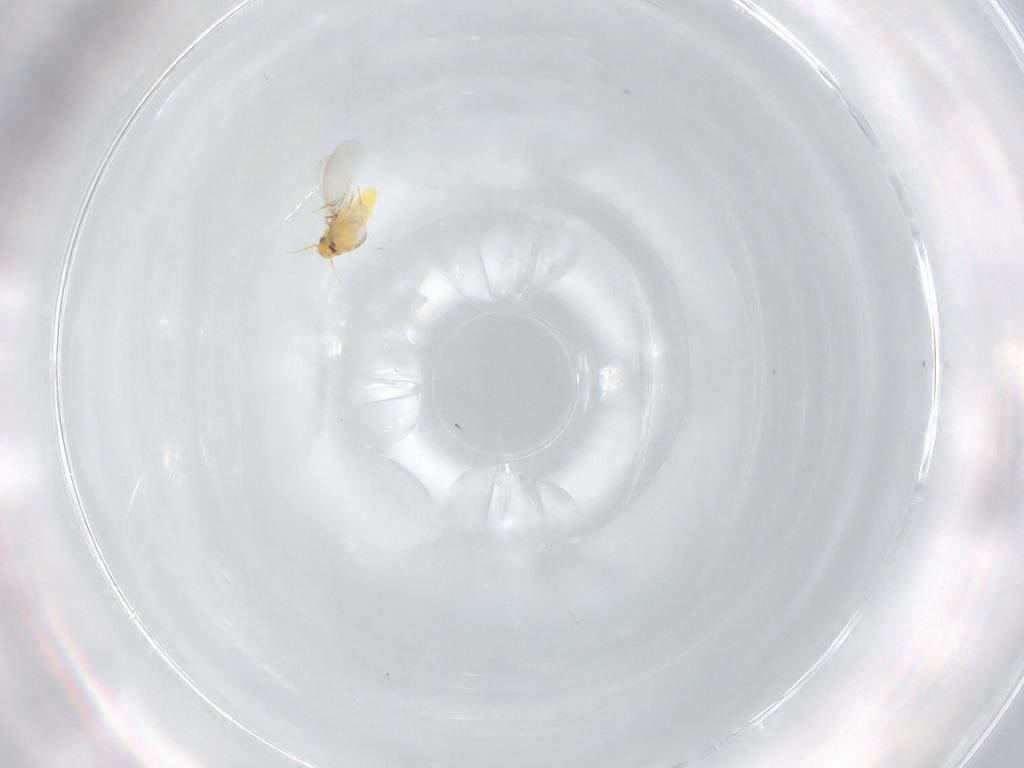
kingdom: Animalia
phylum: Arthropoda
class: Insecta
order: Hemiptera
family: Aleyrodidae
